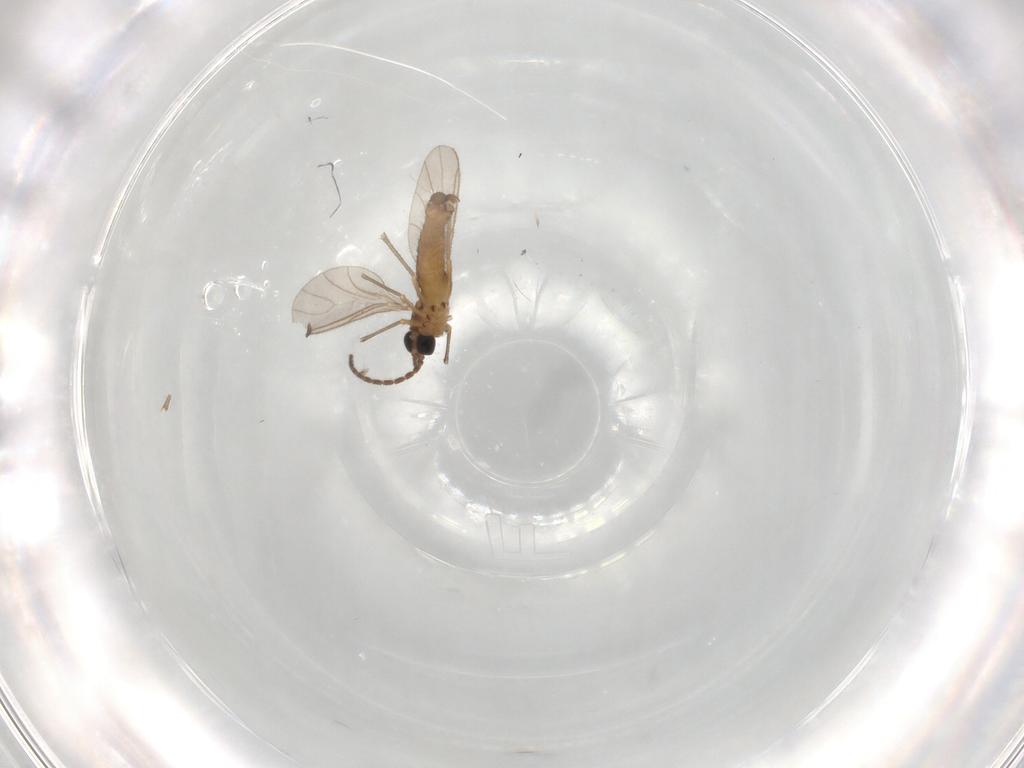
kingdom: Animalia
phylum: Arthropoda
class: Insecta
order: Diptera
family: Sciaridae
